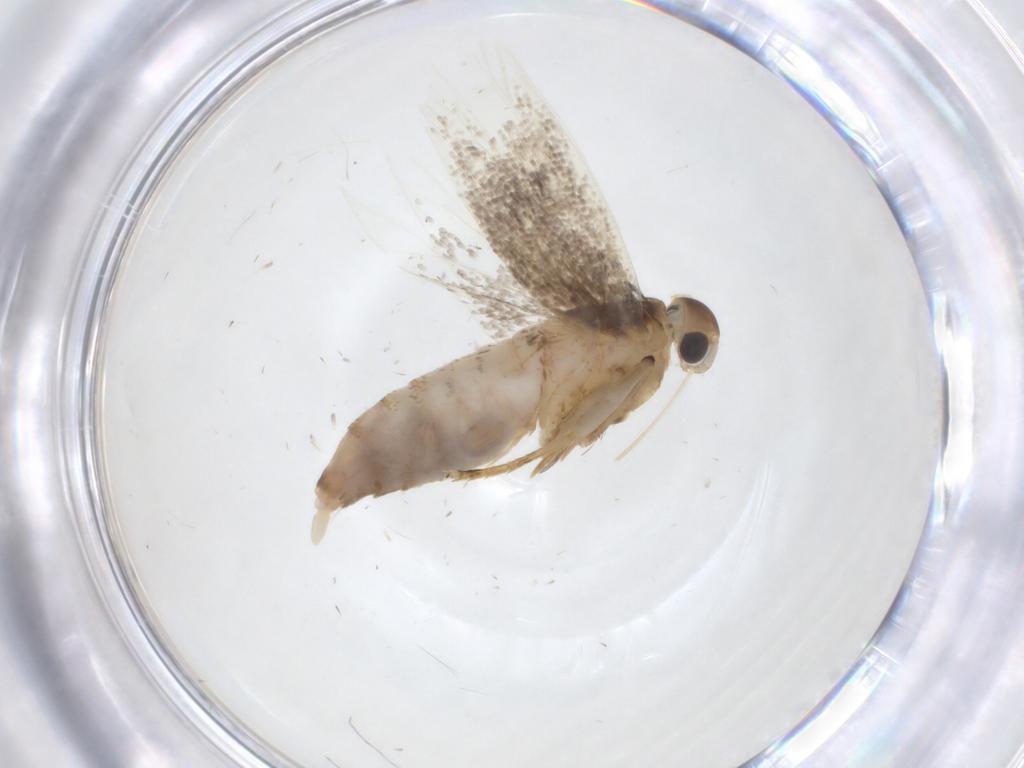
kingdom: Animalia
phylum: Arthropoda
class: Insecta
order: Lepidoptera
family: Lecithoceridae
